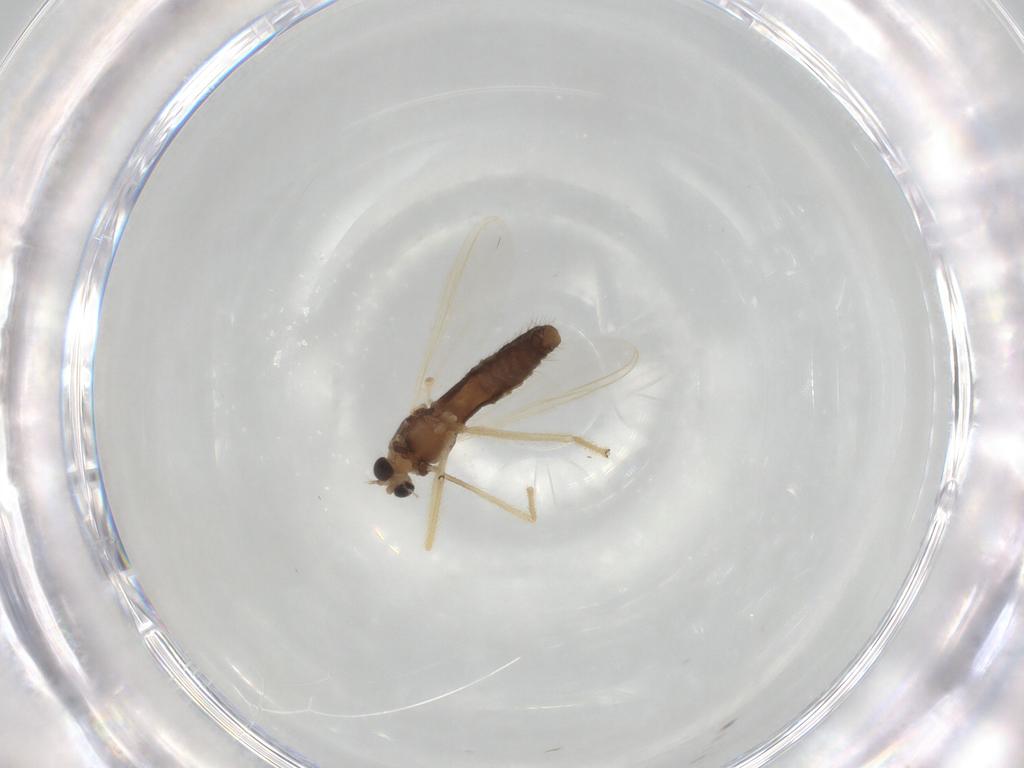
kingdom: Animalia
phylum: Arthropoda
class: Insecta
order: Diptera
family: Chironomidae
